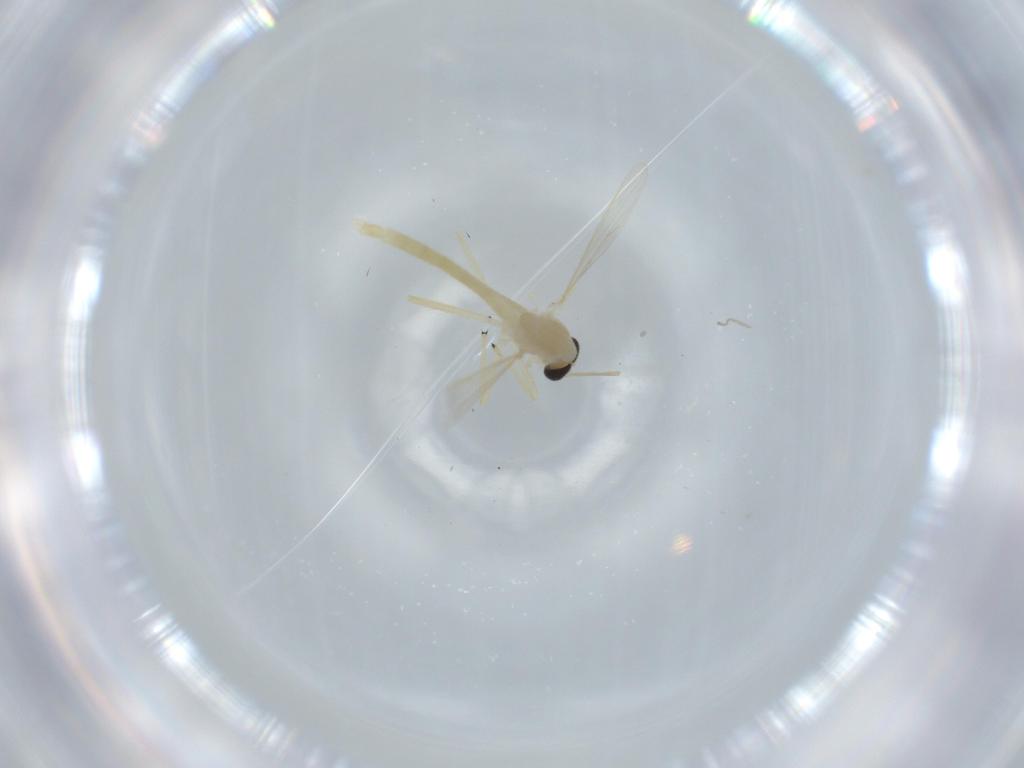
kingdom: Animalia
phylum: Arthropoda
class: Insecta
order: Diptera
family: Chironomidae
